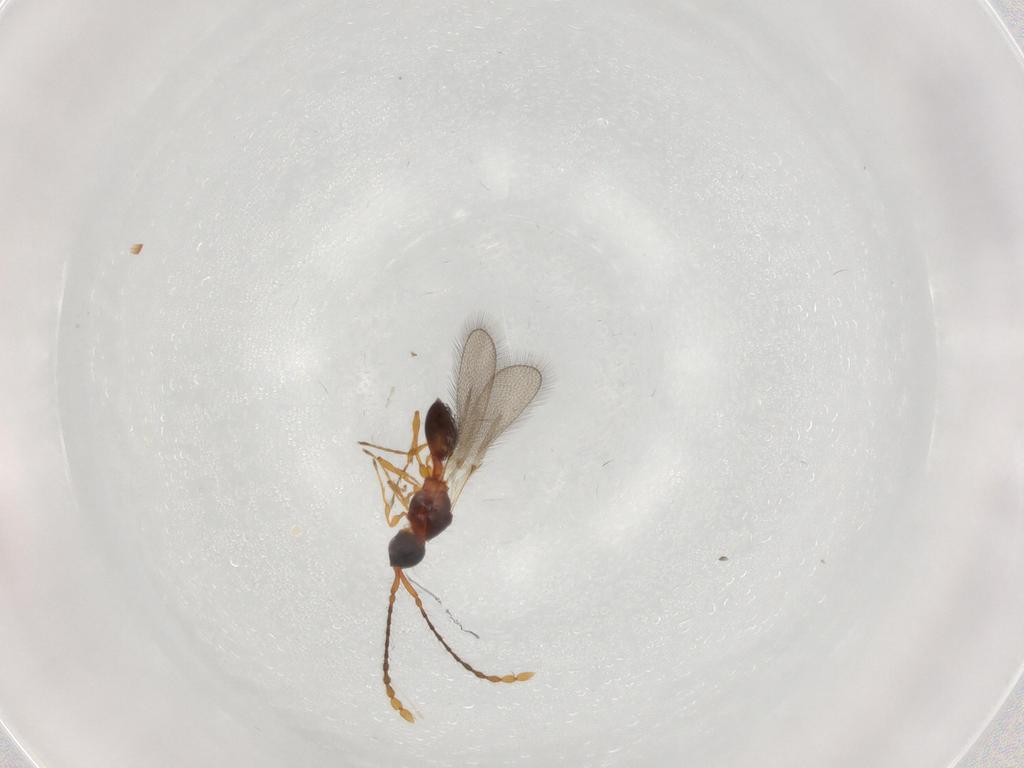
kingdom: Animalia
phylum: Arthropoda
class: Insecta
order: Hymenoptera
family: Diapriidae
